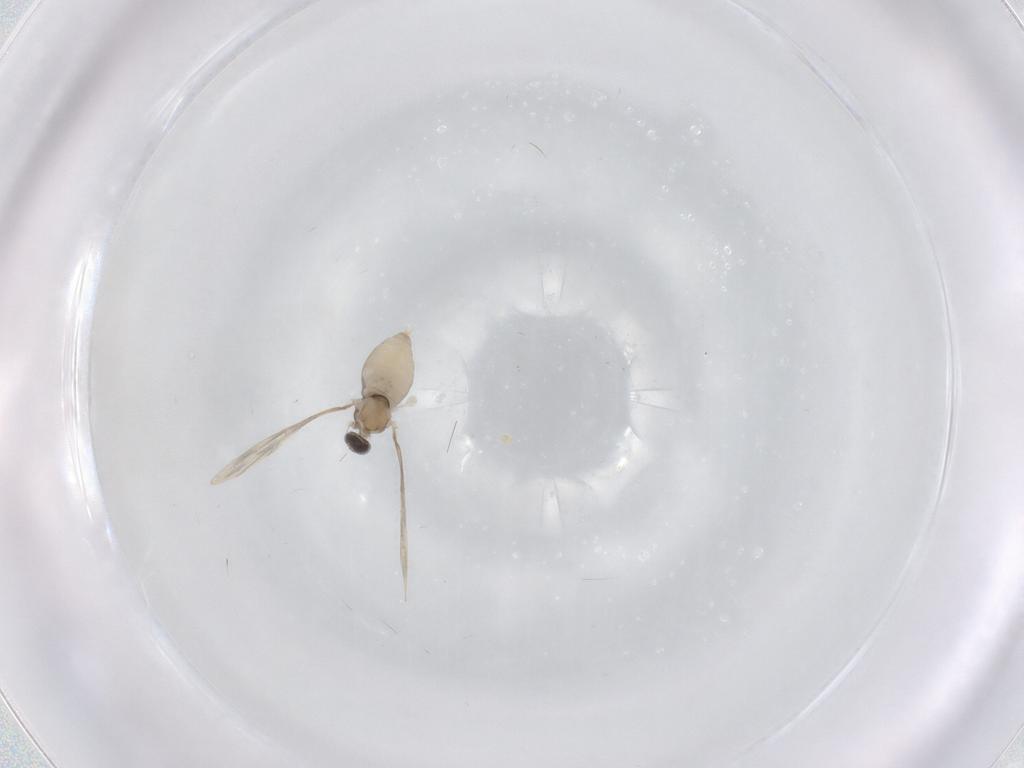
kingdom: Animalia
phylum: Arthropoda
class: Insecta
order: Diptera
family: Cecidomyiidae
